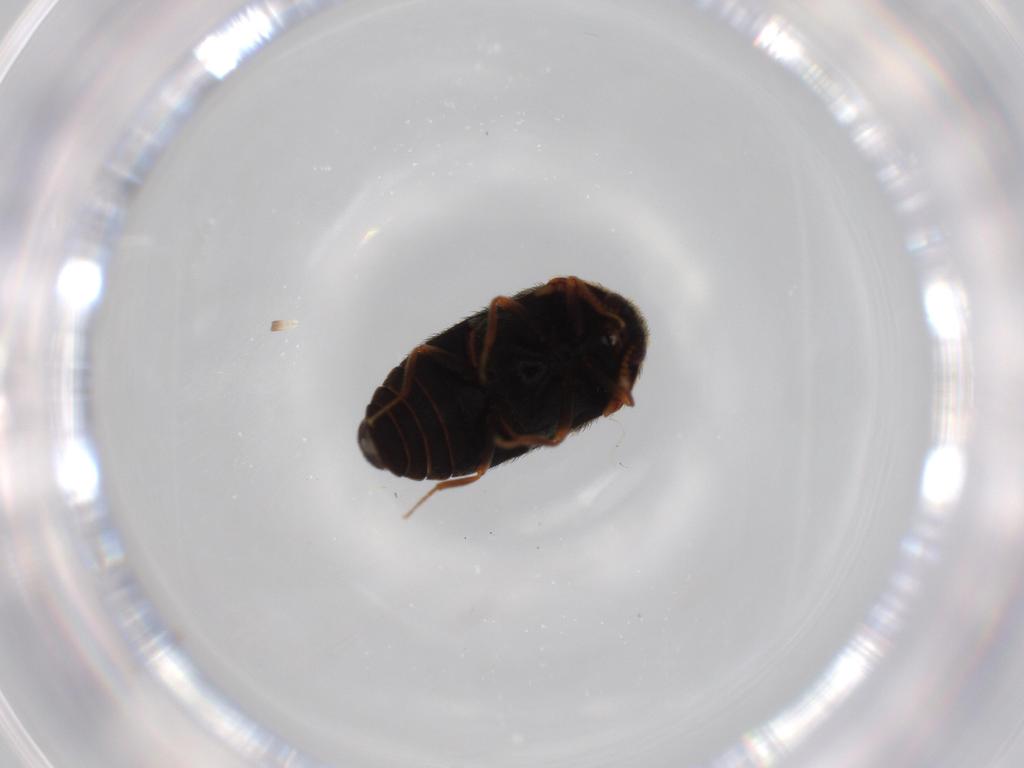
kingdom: Animalia
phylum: Arthropoda
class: Insecta
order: Coleoptera
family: Dermestidae
